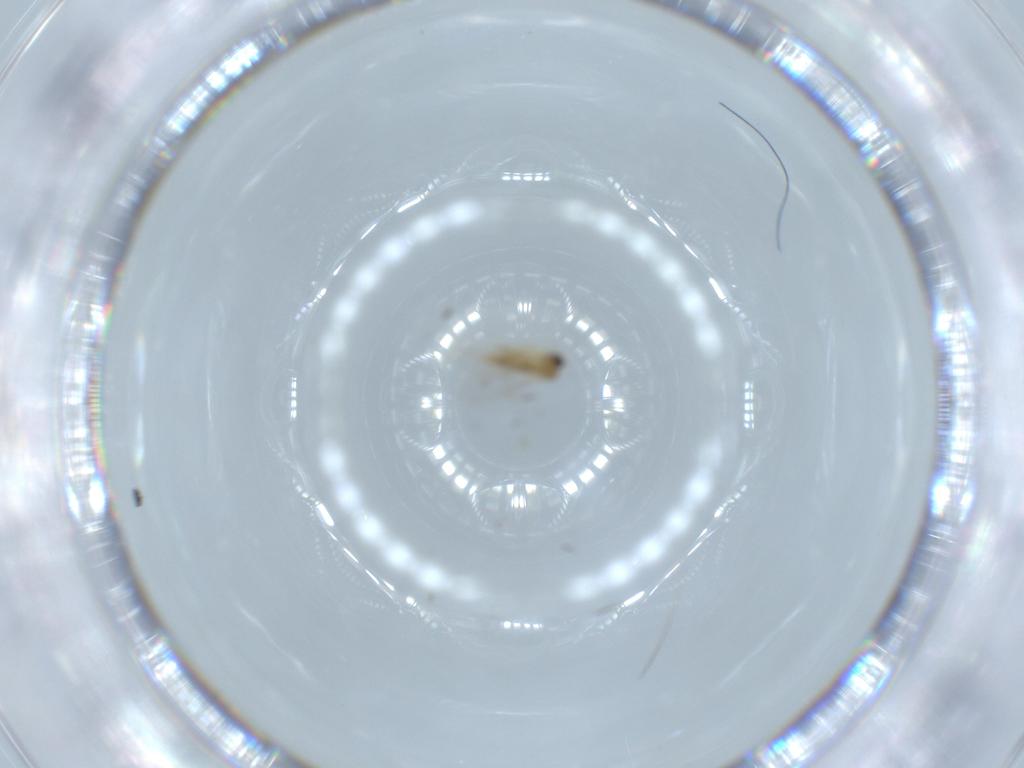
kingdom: Animalia
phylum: Arthropoda
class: Insecta
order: Diptera
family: Cecidomyiidae
